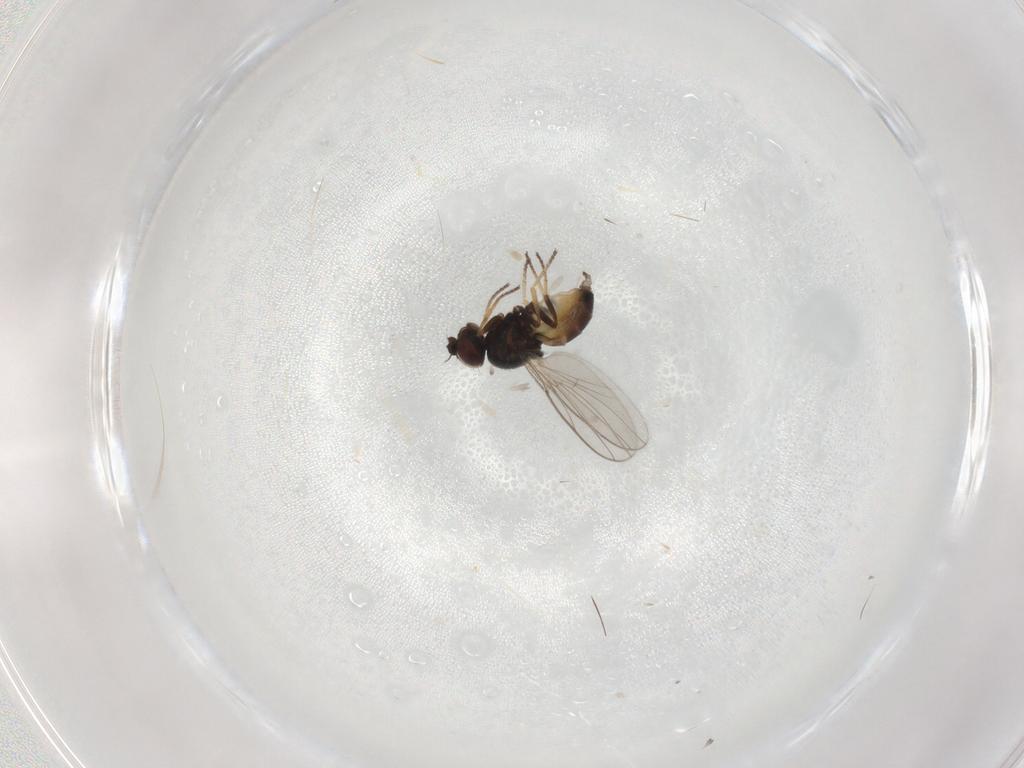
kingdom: Animalia
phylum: Arthropoda
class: Insecta
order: Diptera
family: Chloropidae
